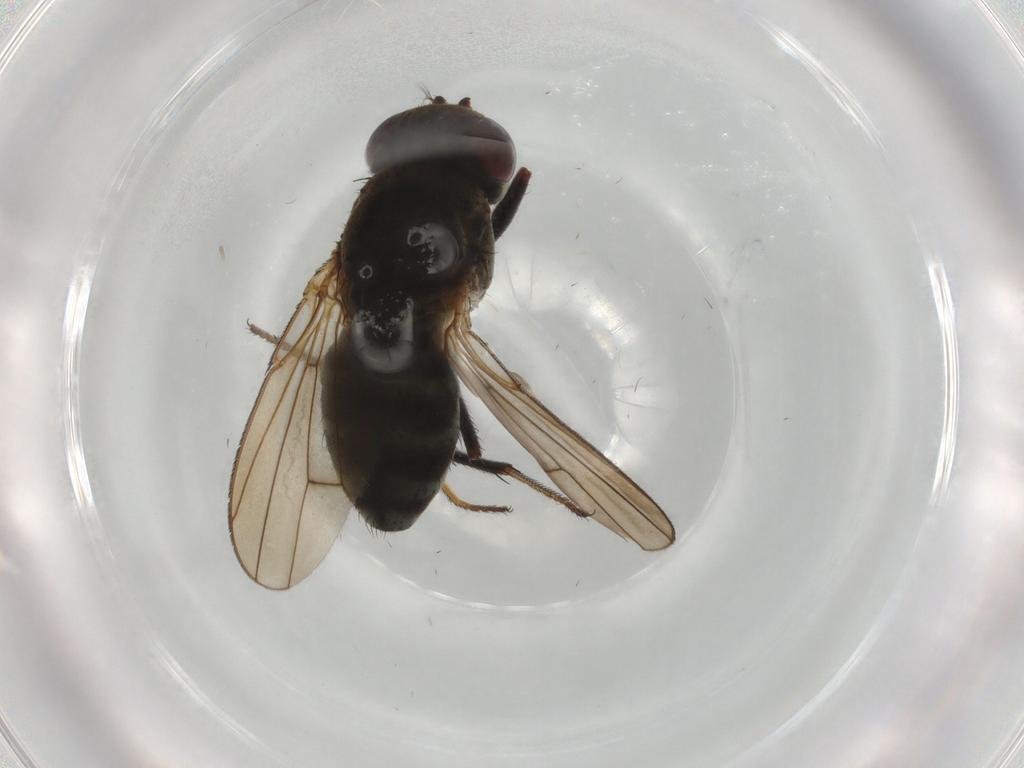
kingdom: Animalia
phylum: Arthropoda
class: Insecta
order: Diptera
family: Ephydridae
